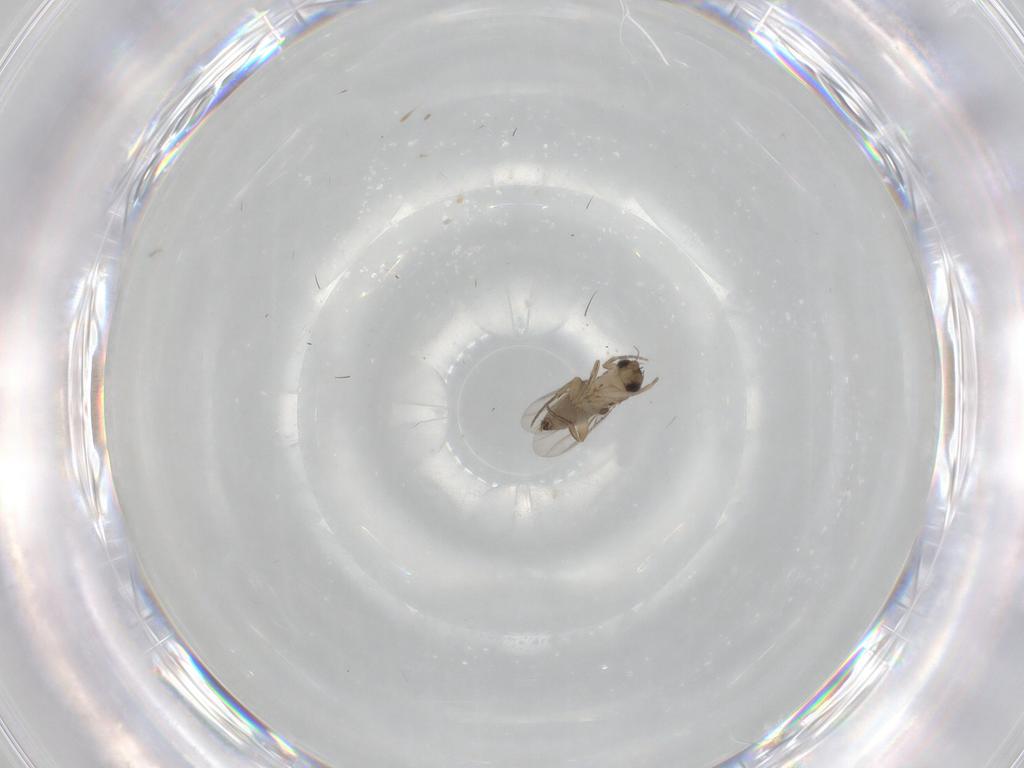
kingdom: Animalia
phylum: Arthropoda
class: Insecta
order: Diptera
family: Phoridae
